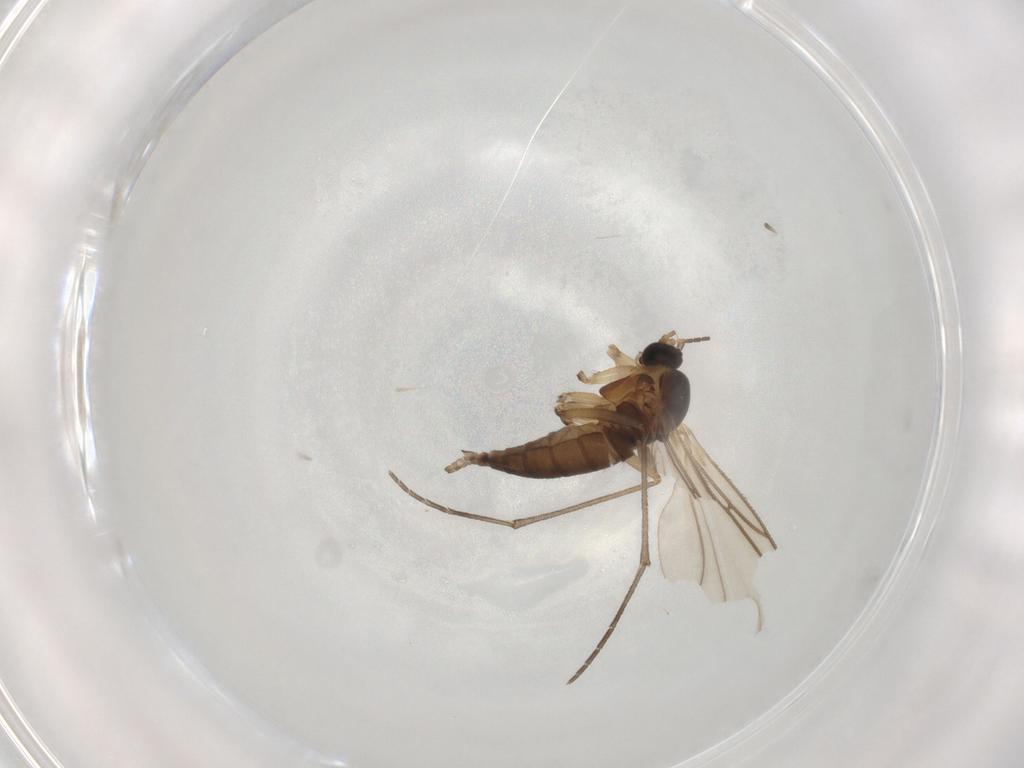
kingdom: Animalia
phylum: Arthropoda
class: Insecta
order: Diptera
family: Sciaridae
